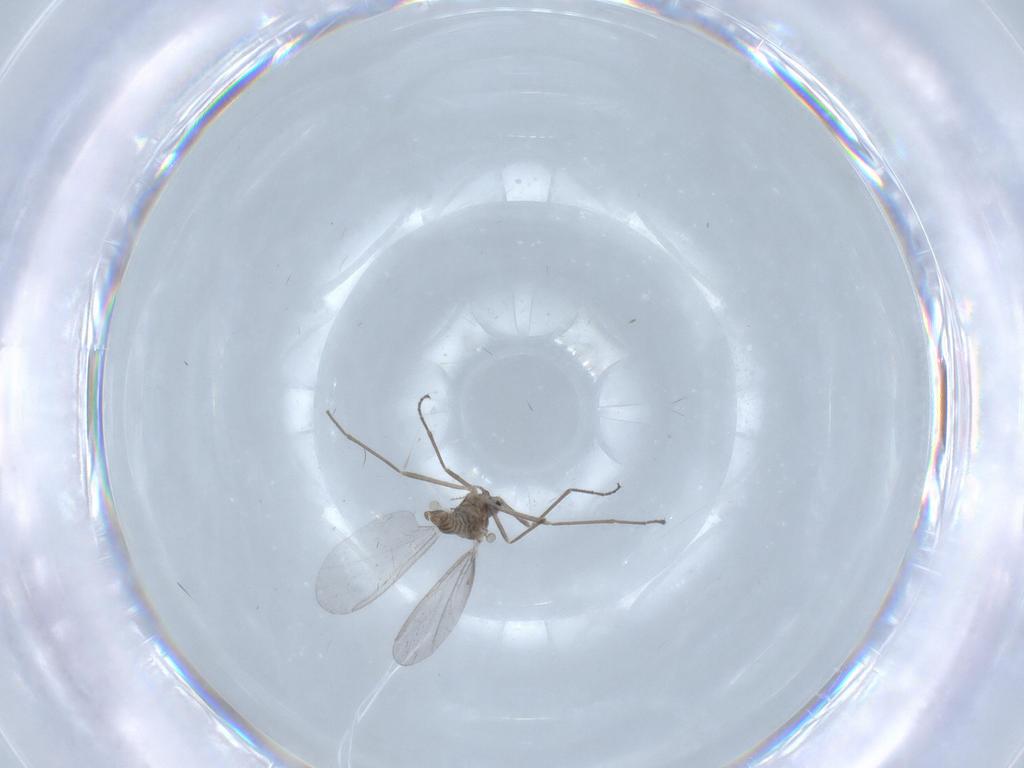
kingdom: Animalia
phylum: Arthropoda
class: Insecta
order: Diptera
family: Cecidomyiidae
